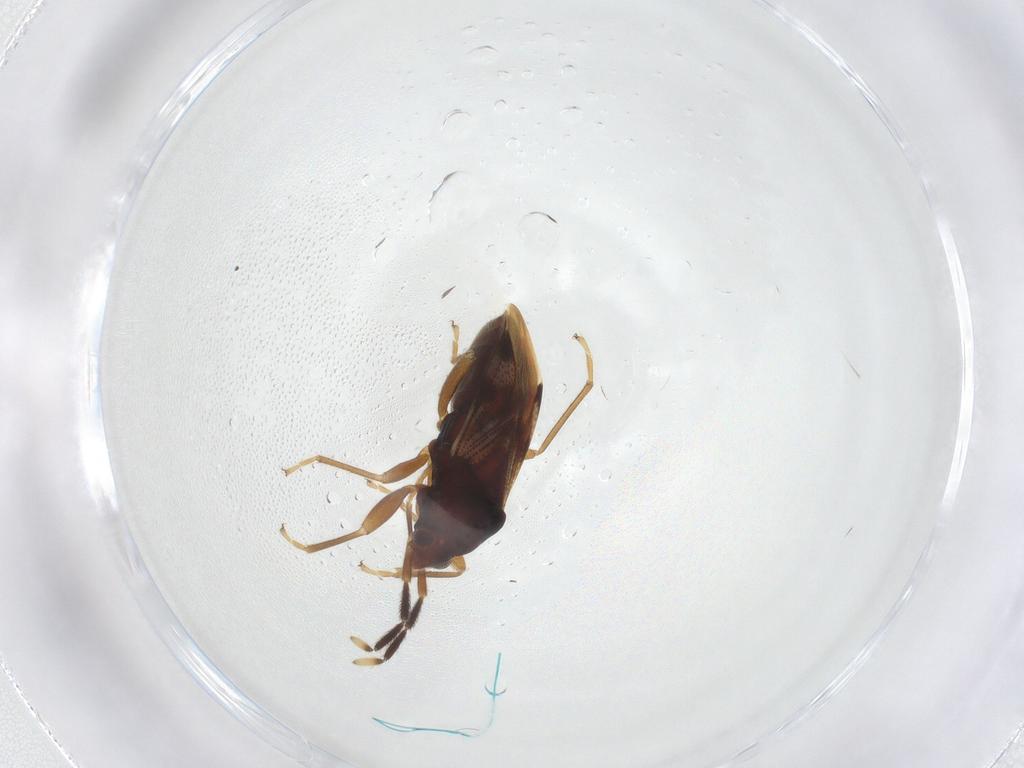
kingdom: Animalia
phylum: Arthropoda
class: Insecta
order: Hemiptera
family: Rhyparochromidae
